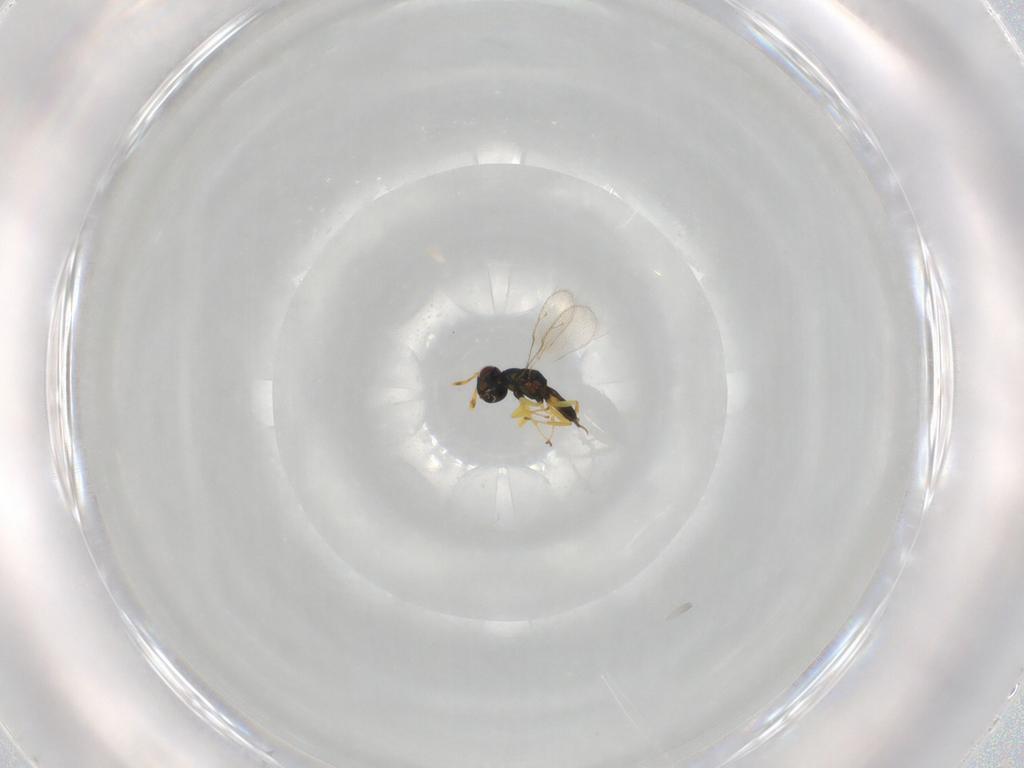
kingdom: Animalia
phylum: Arthropoda
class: Insecta
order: Hymenoptera
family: Pteromalidae
